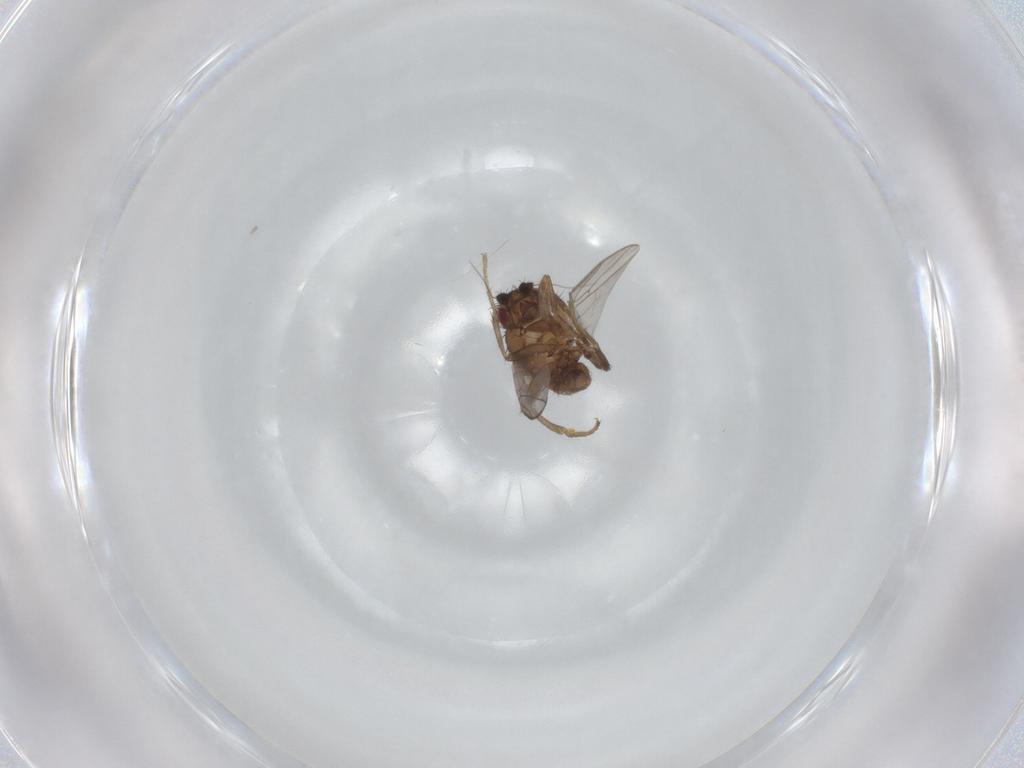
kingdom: Animalia
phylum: Arthropoda
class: Insecta
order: Diptera
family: Sphaeroceridae
